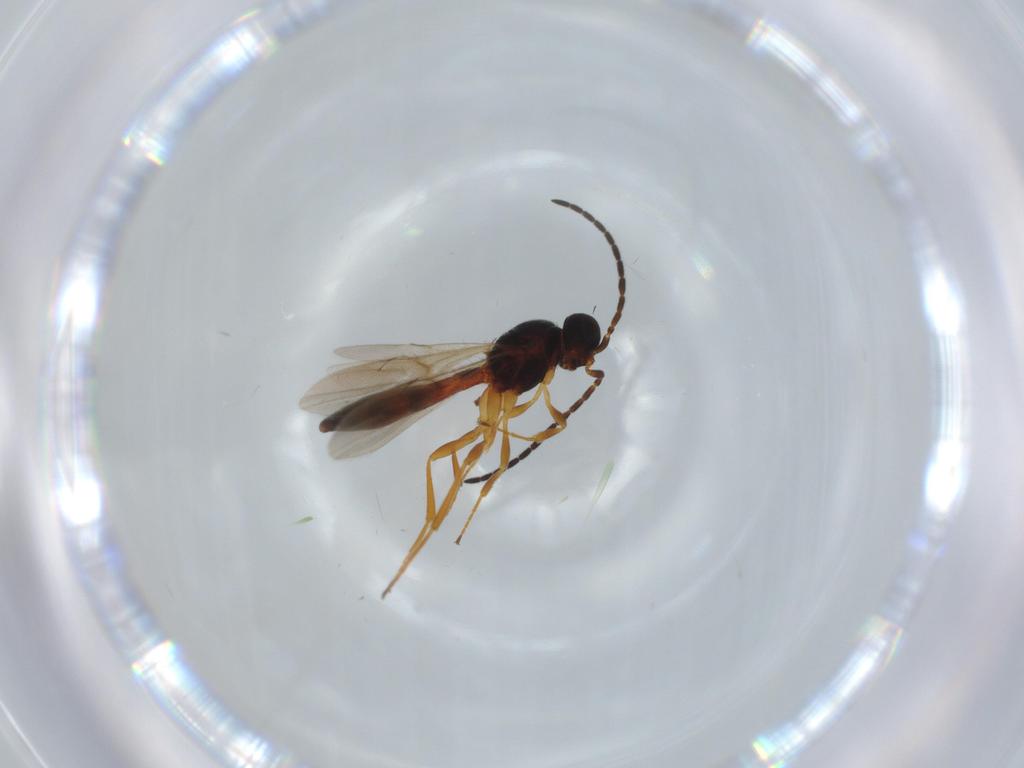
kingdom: Animalia
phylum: Arthropoda
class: Insecta
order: Hymenoptera
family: Scelionidae
